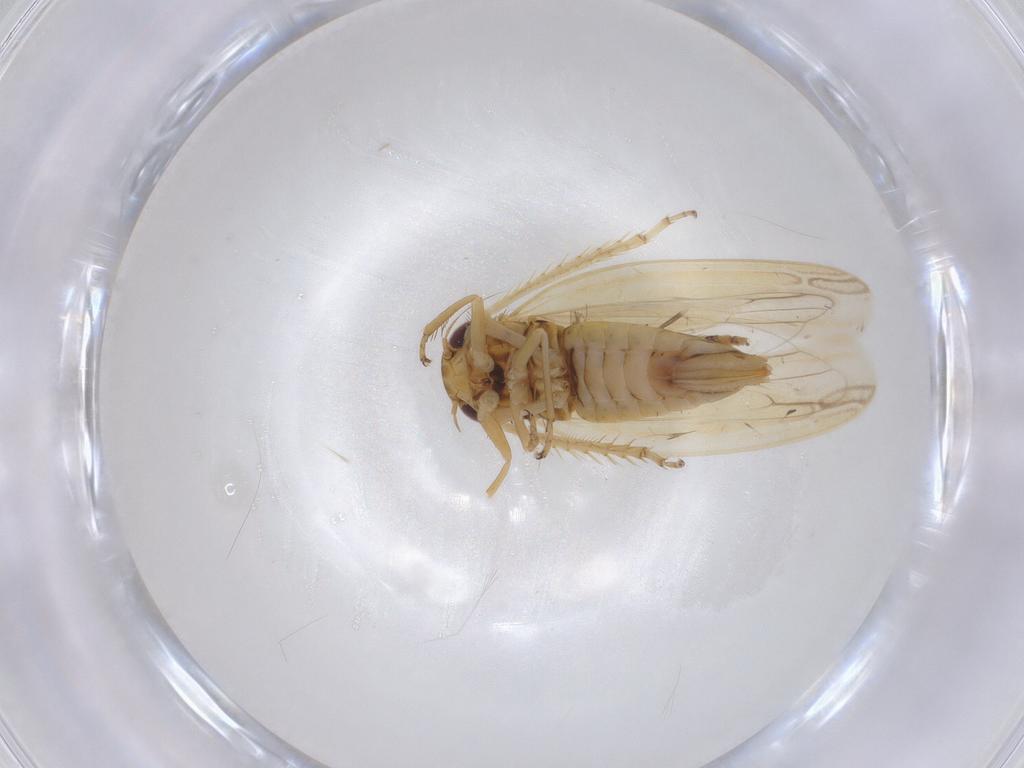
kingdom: Animalia
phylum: Arthropoda
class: Insecta
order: Hemiptera
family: Cicadellidae
